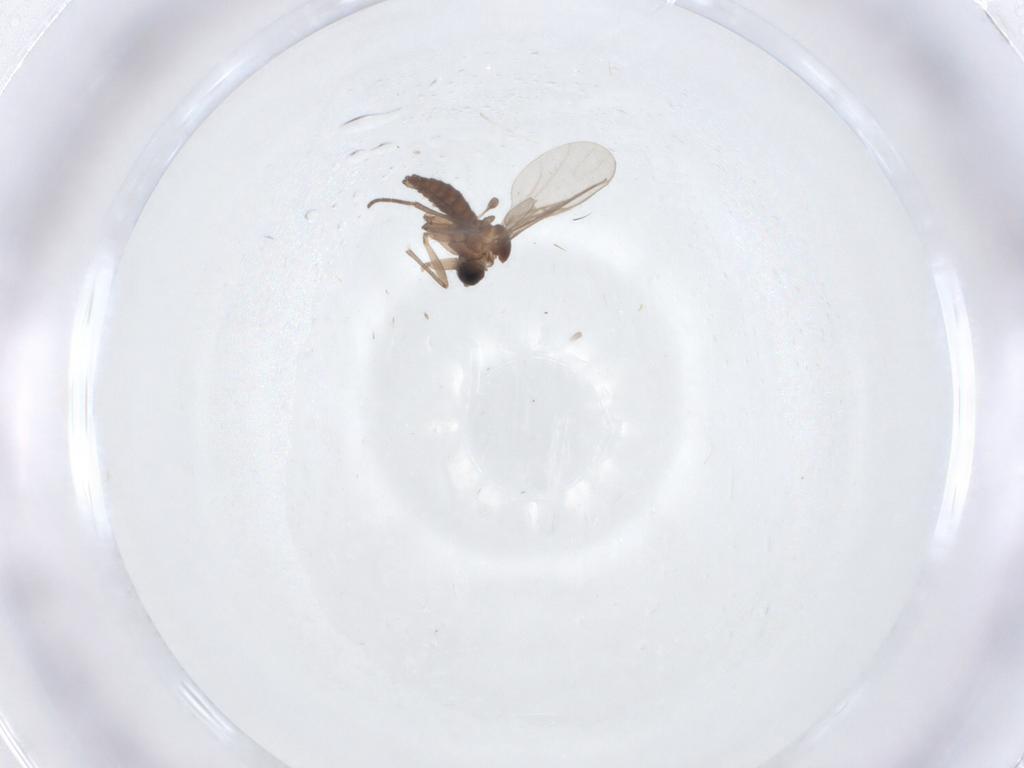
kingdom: Animalia
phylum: Arthropoda
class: Insecta
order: Diptera
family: Sciaridae
